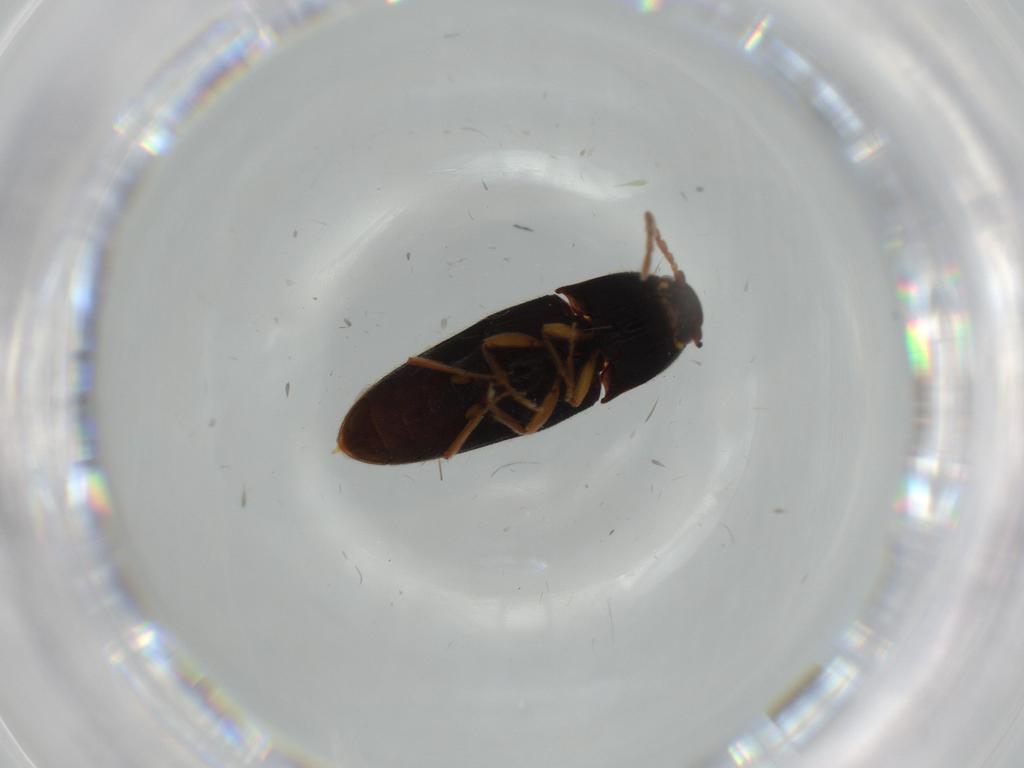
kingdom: Animalia
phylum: Arthropoda
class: Insecta
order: Coleoptera
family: Elateridae
